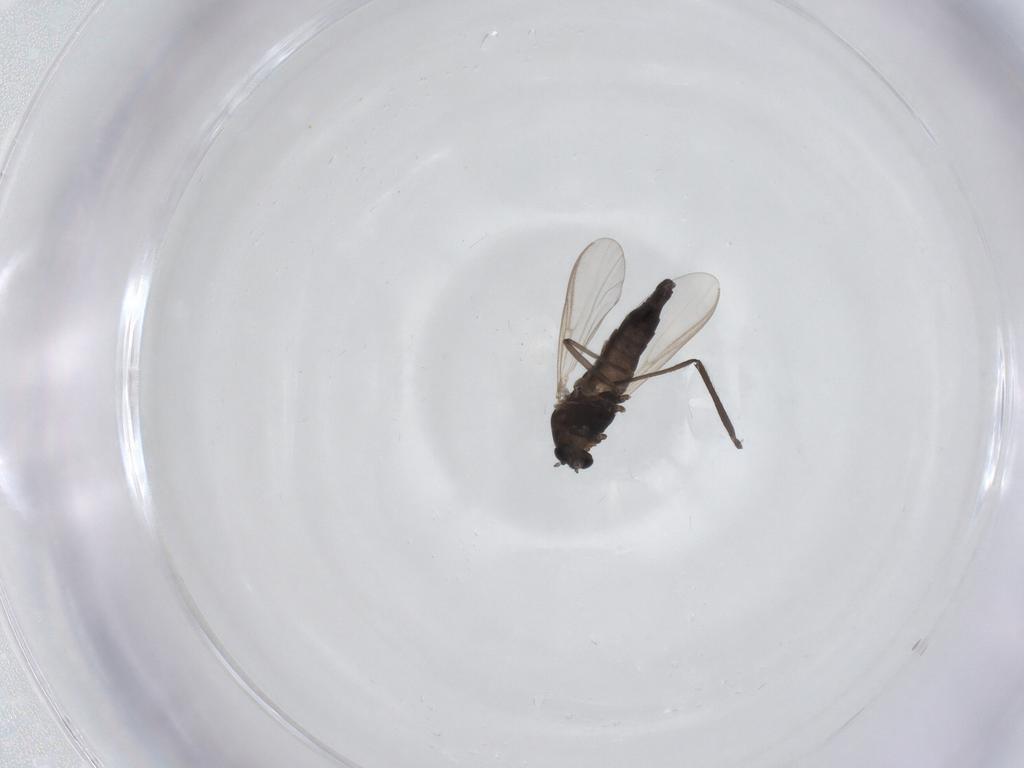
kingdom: Animalia
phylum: Arthropoda
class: Insecta
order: Diptera
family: Chironomidae
